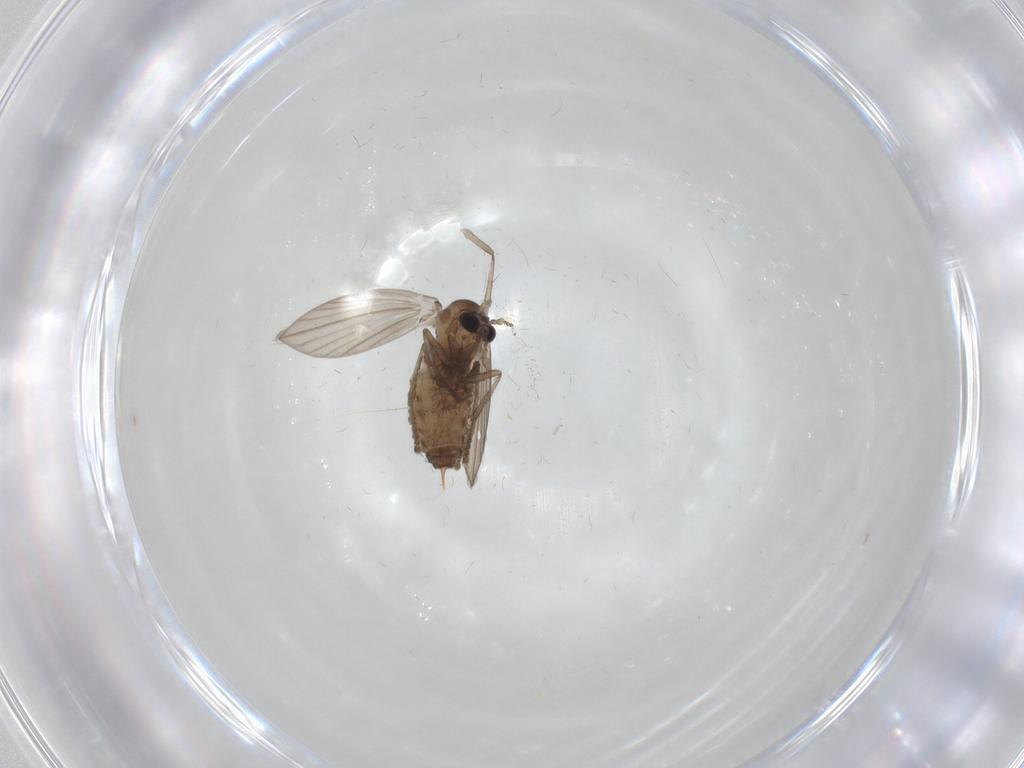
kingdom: Animalia
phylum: Arthropoda
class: Insecta
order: Diptera
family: Psychodidae
